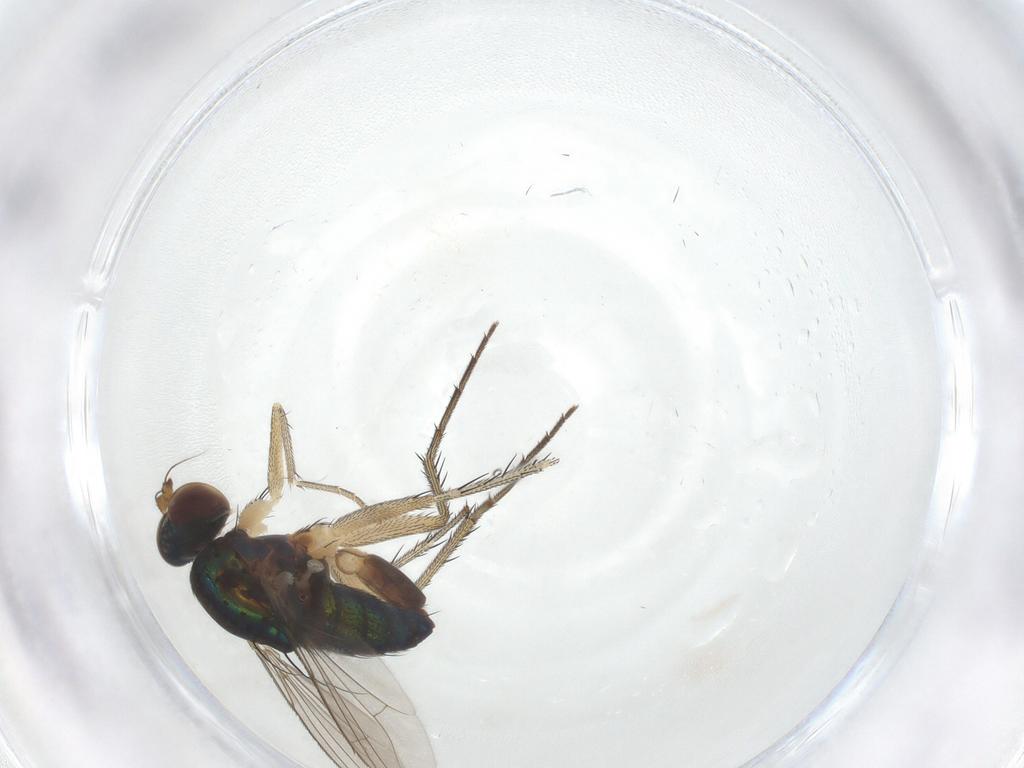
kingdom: Animalia
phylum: Arthropoda
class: Insecta
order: Diptera
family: Dolichopodidae
